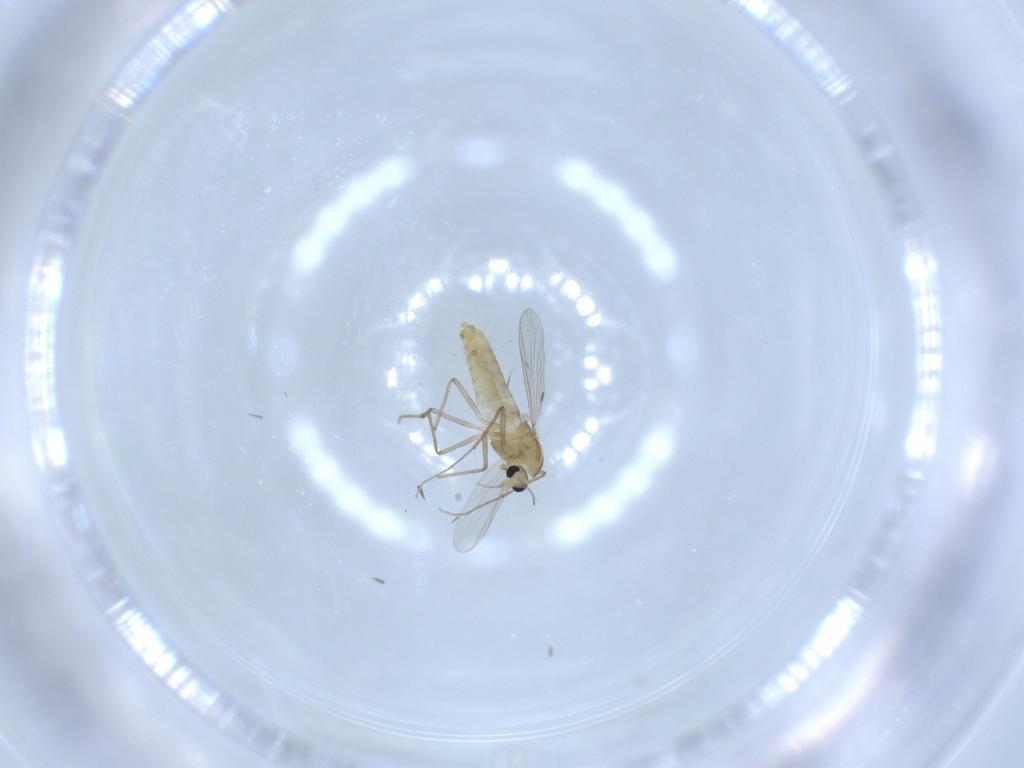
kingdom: Animalia
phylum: Arthropoda
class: Insecta
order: Diptera
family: Chironomidae
